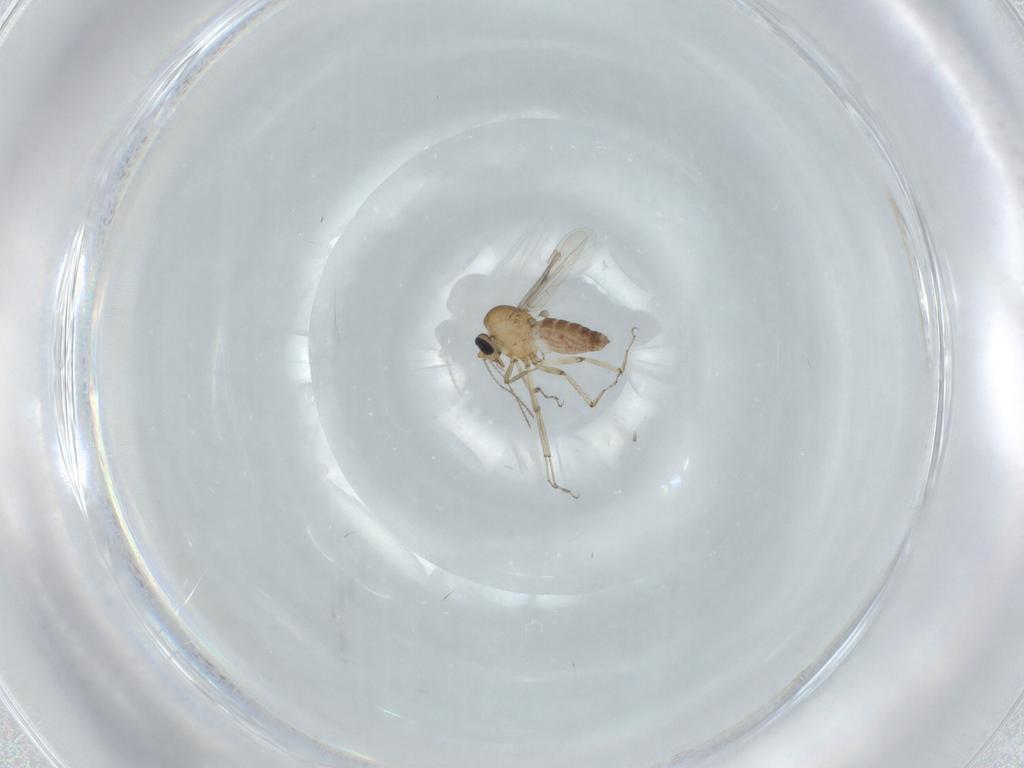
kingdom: Animalia
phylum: Arthropoda
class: Insecta
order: Diptera
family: Ceratopogonidae
